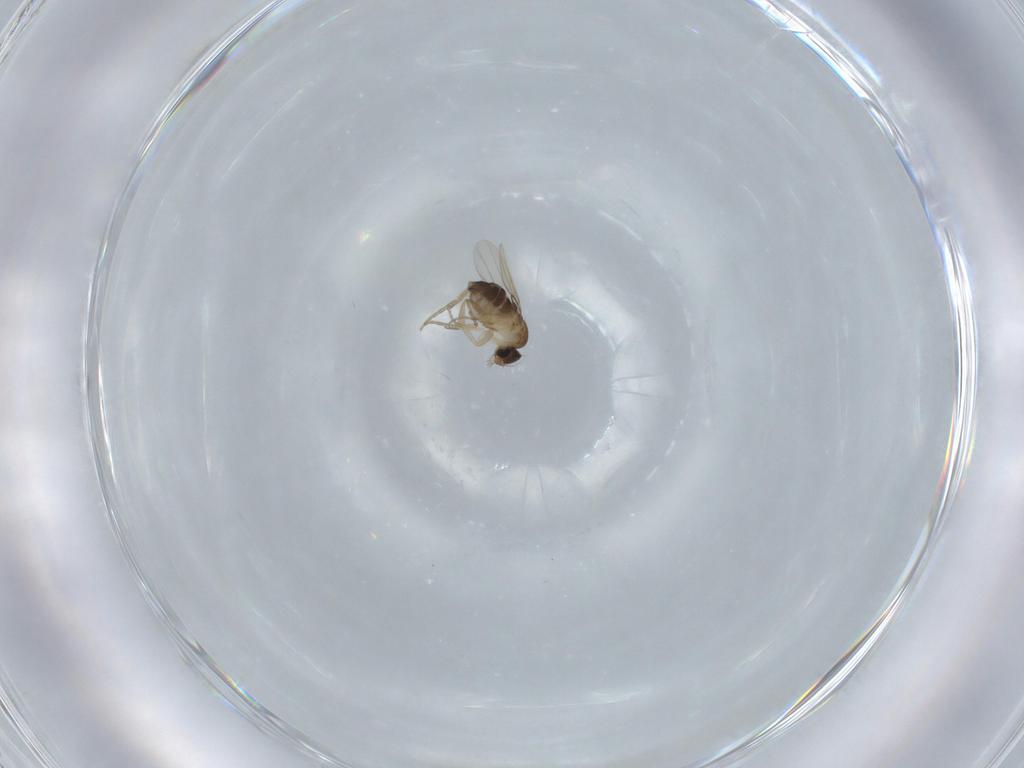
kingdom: Animalia
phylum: Arthropoda
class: Insecta
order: Diptera
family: Phoridae
